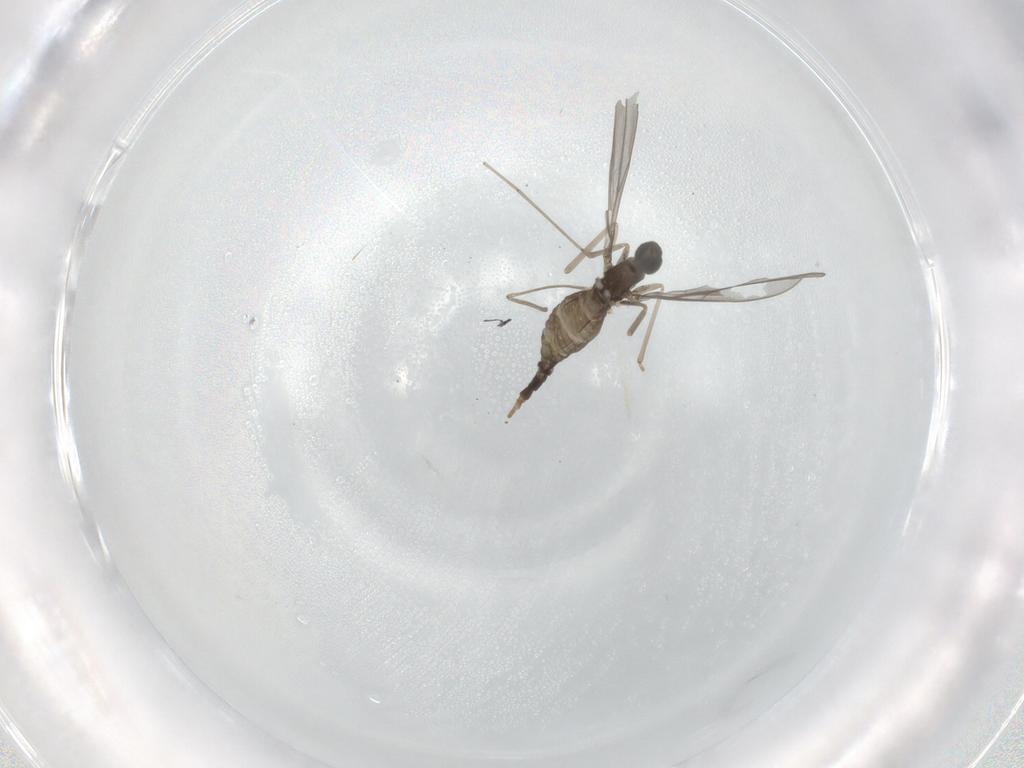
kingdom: Animalia
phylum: Arthropoda
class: Insecta
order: Diptera
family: Cecidomyiidae
